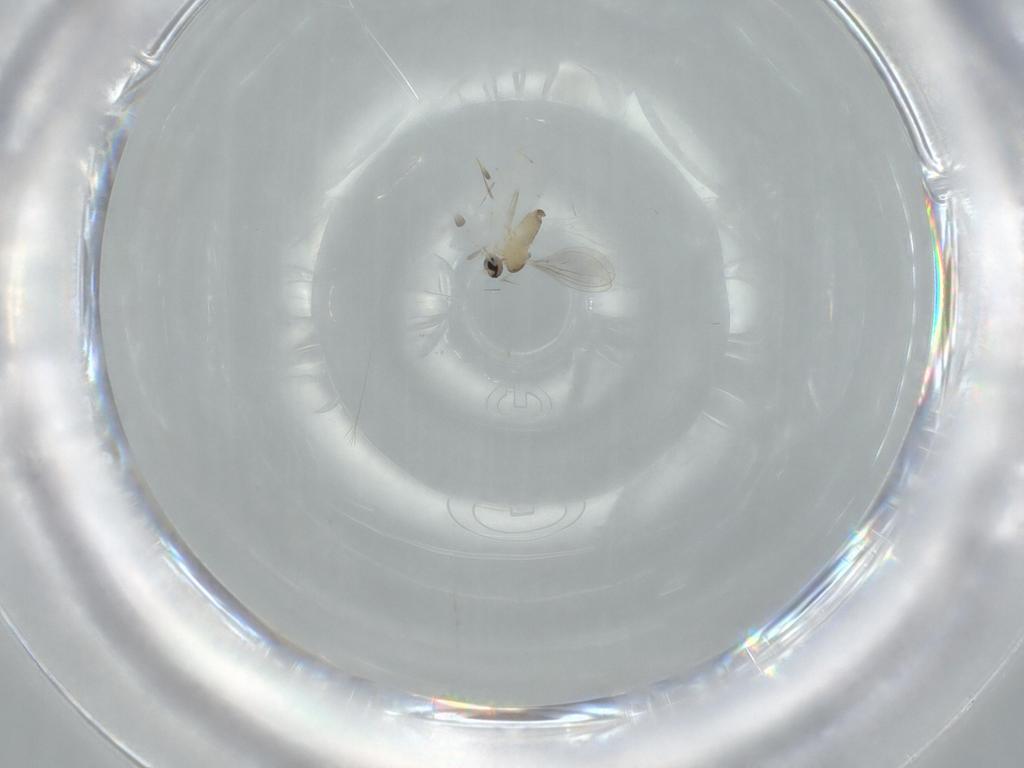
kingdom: Animalia
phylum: Arthropoda
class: Insecta
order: Diptera
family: Cecidomyiidae
